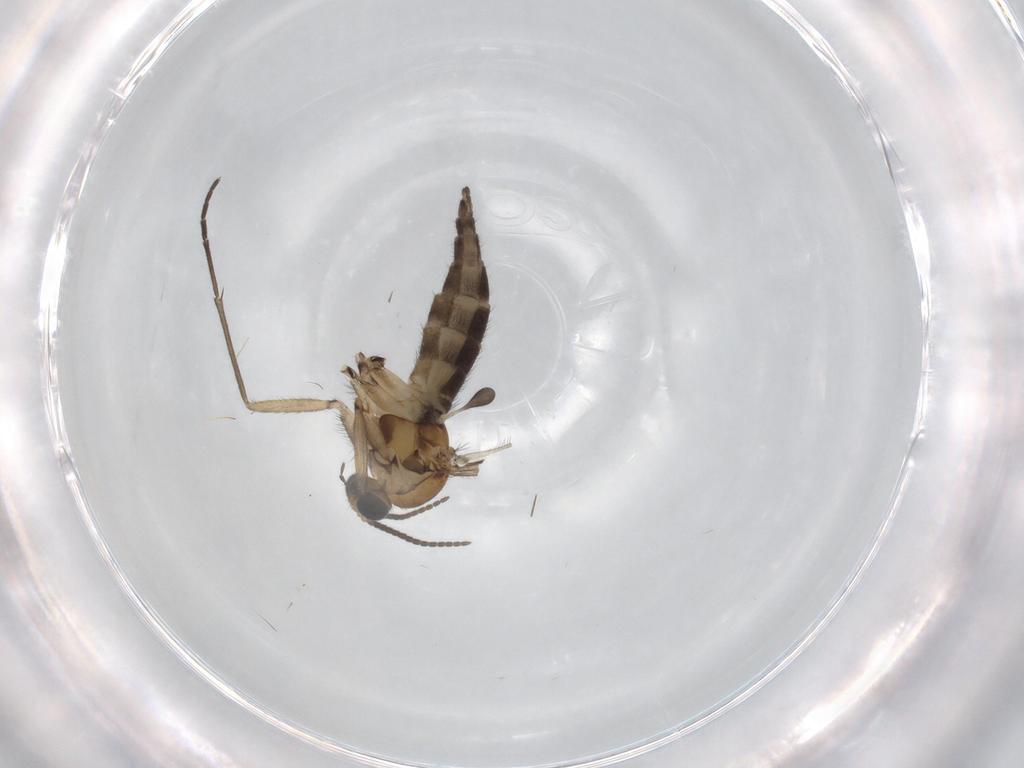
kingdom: Animalia
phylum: Arthropoda
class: Insecta
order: Diptera
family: Sciaridae
